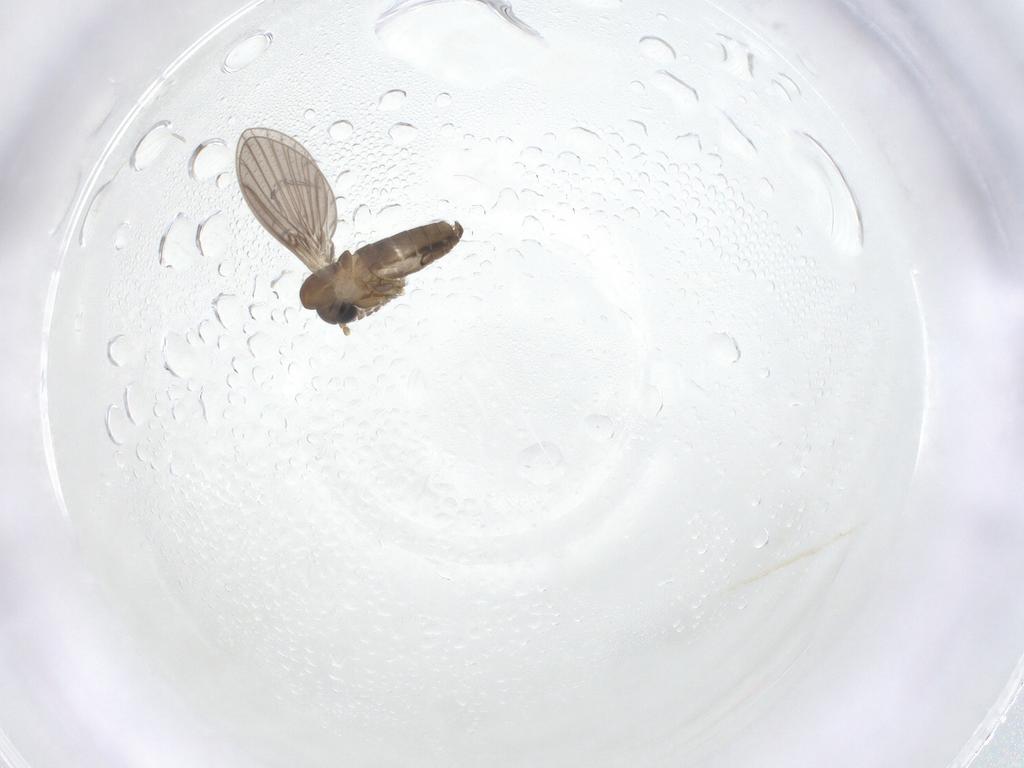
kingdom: Animalia
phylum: Arthropoda
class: Insecta
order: Diptera
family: Psychodidae
